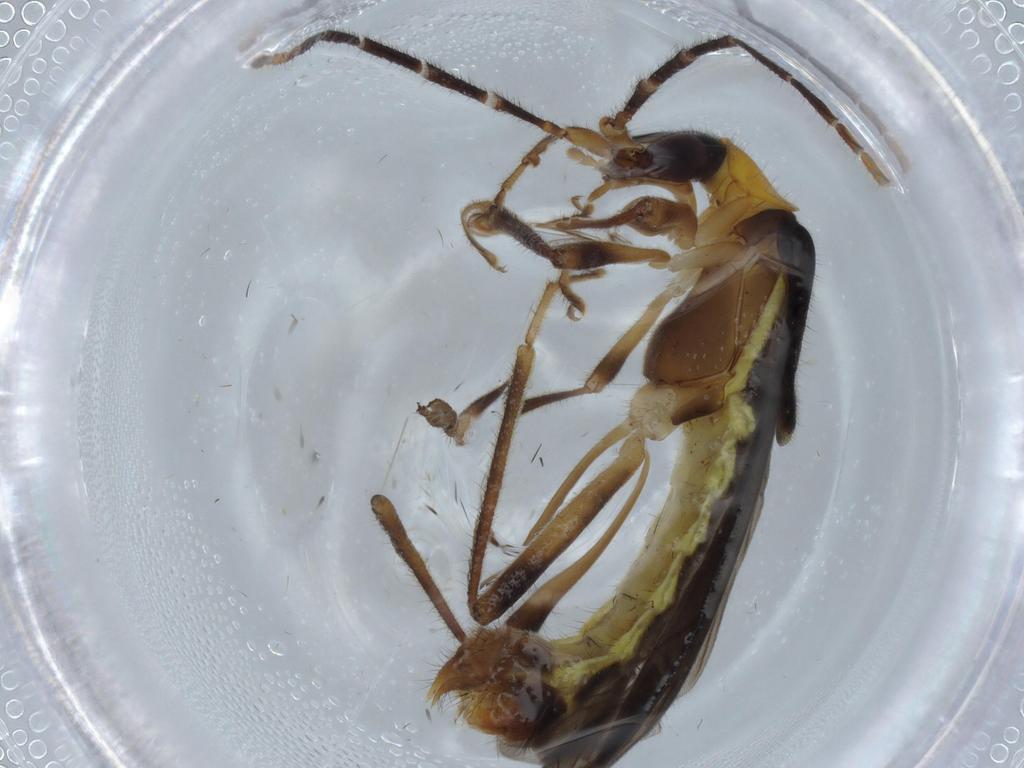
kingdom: Animalia
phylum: Arthropoda
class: Insecta
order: Coleoptera
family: Cantharidae
